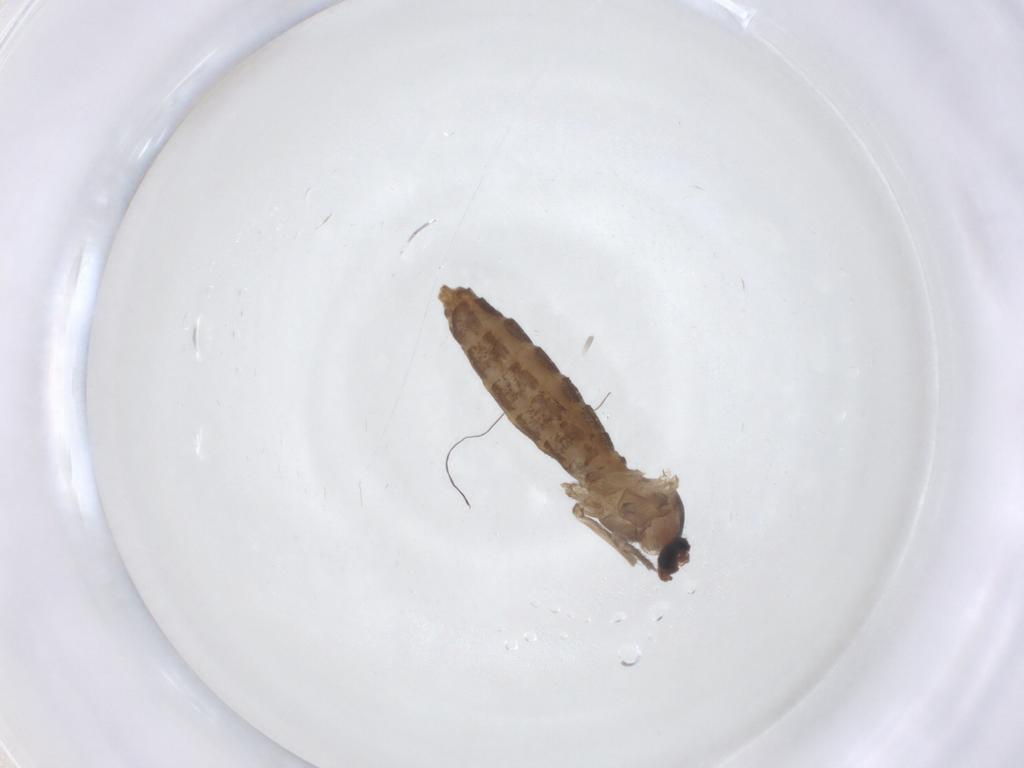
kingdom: Animalia
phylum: Arthropoda
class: Insecta
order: Diptera
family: Cecidomyiidae
